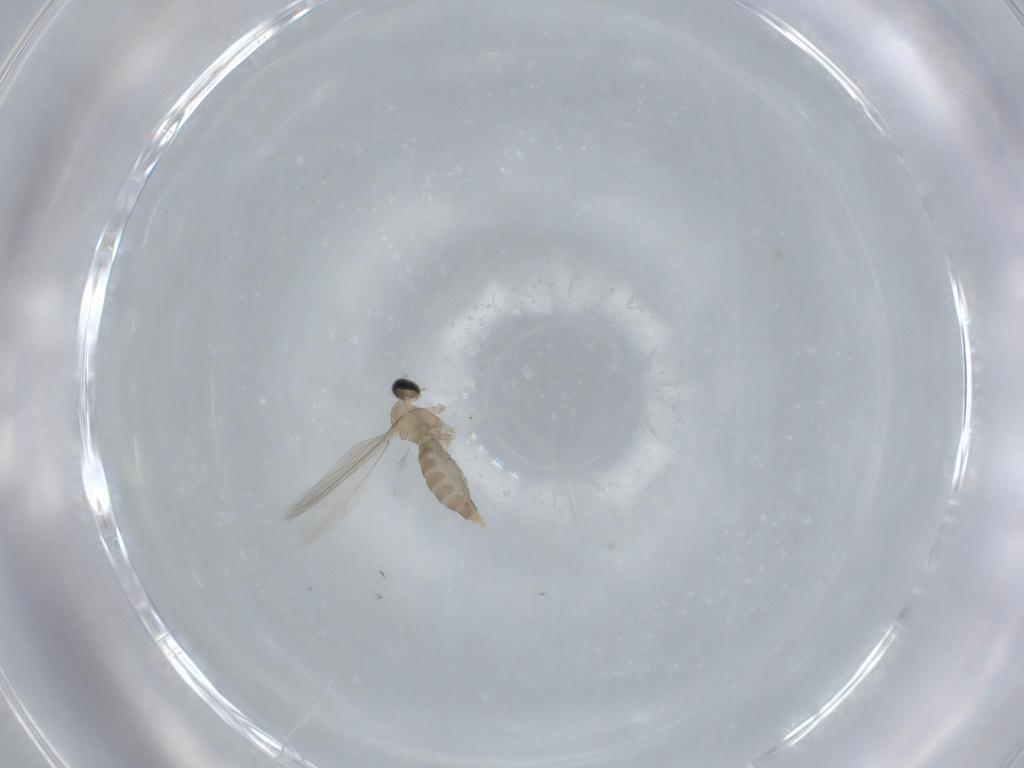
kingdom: Animalia
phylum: Arthropoda
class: Insecta
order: Diptera
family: Cecidomyiidae
